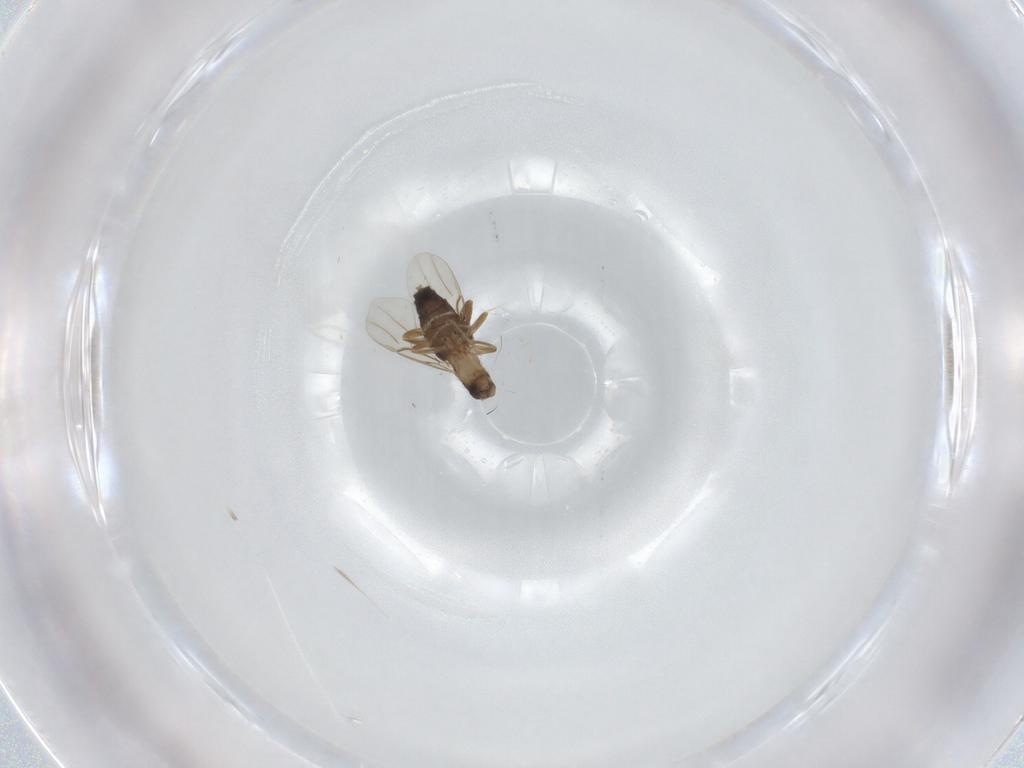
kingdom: Animalia
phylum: Arthropoda
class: Insecta
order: Diptera
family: Phoridae
